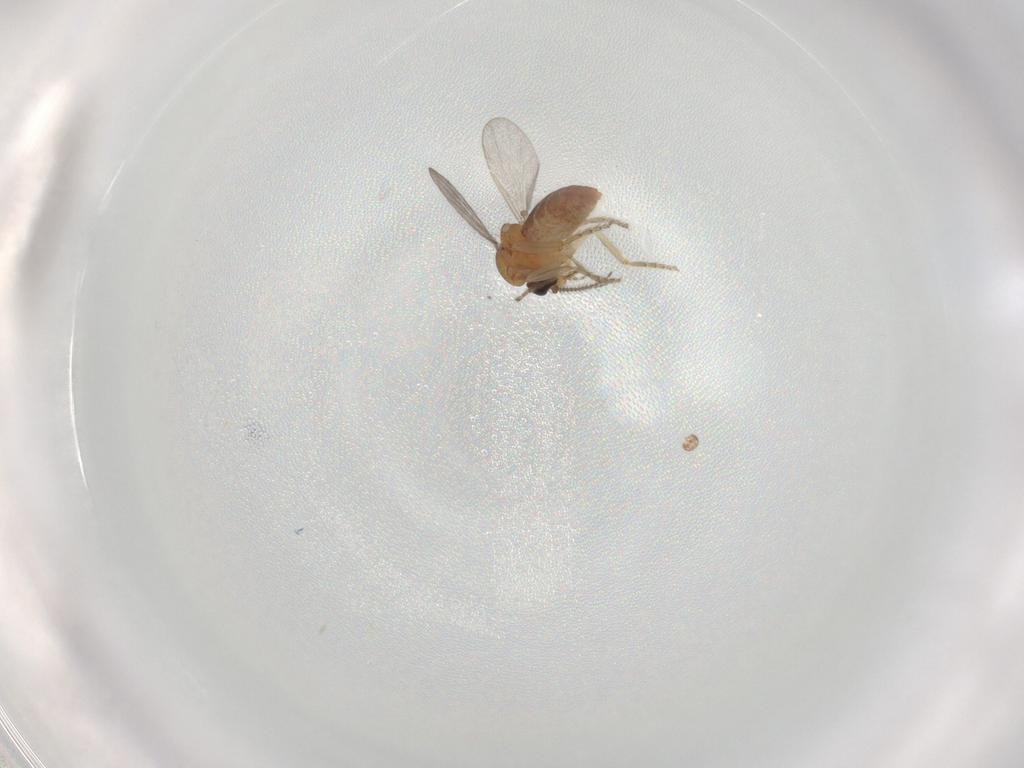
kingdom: Animalia
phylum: Arthropoda
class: Insecta
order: Diptera
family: Ceratopogonidae
